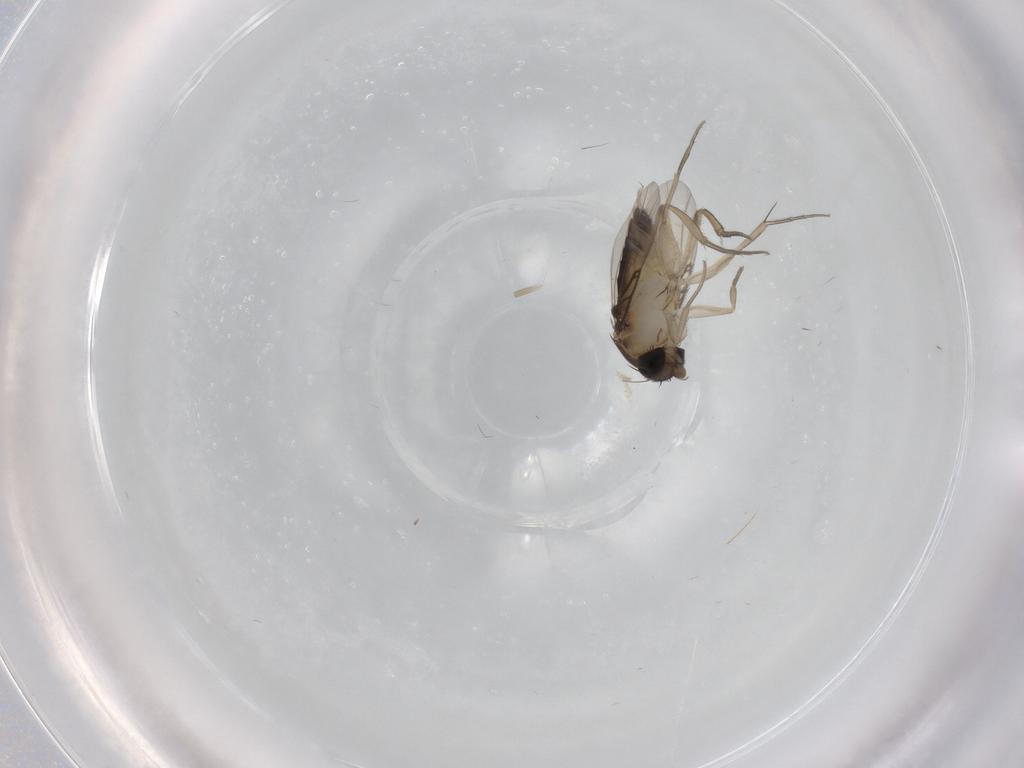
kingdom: Animalia
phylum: Arthropoda
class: Insecta
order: Diptera
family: Phoridae
